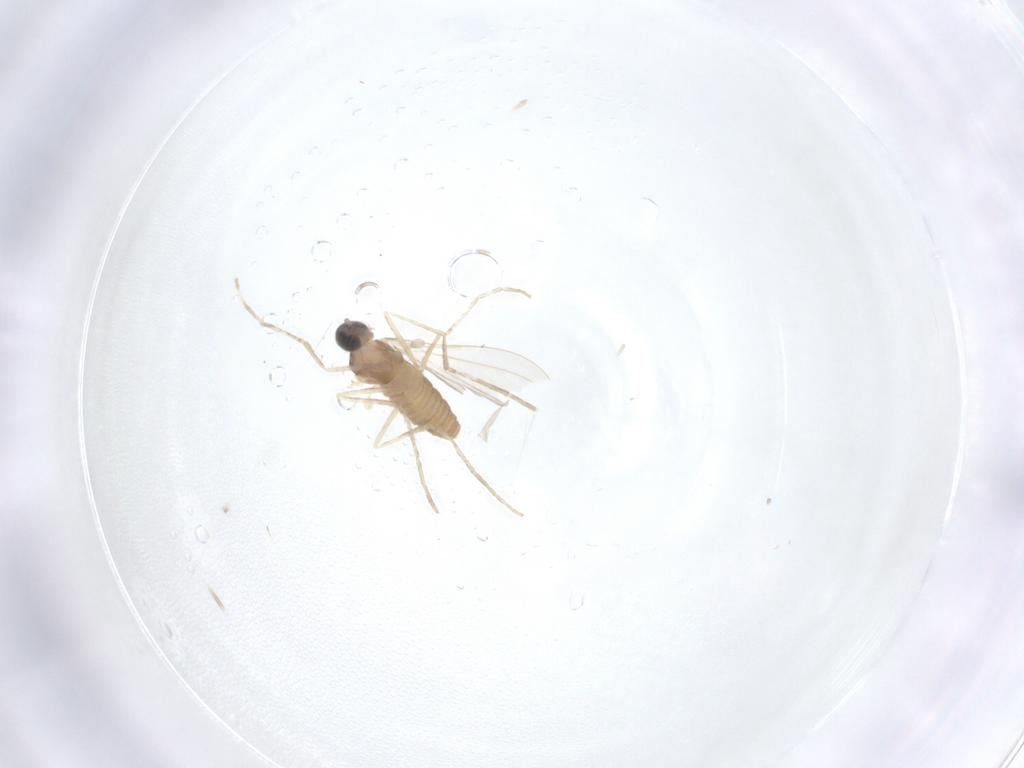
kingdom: Animalia
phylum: Arthropoda
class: Insecta
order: Diptera
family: Cecidomyiidae
